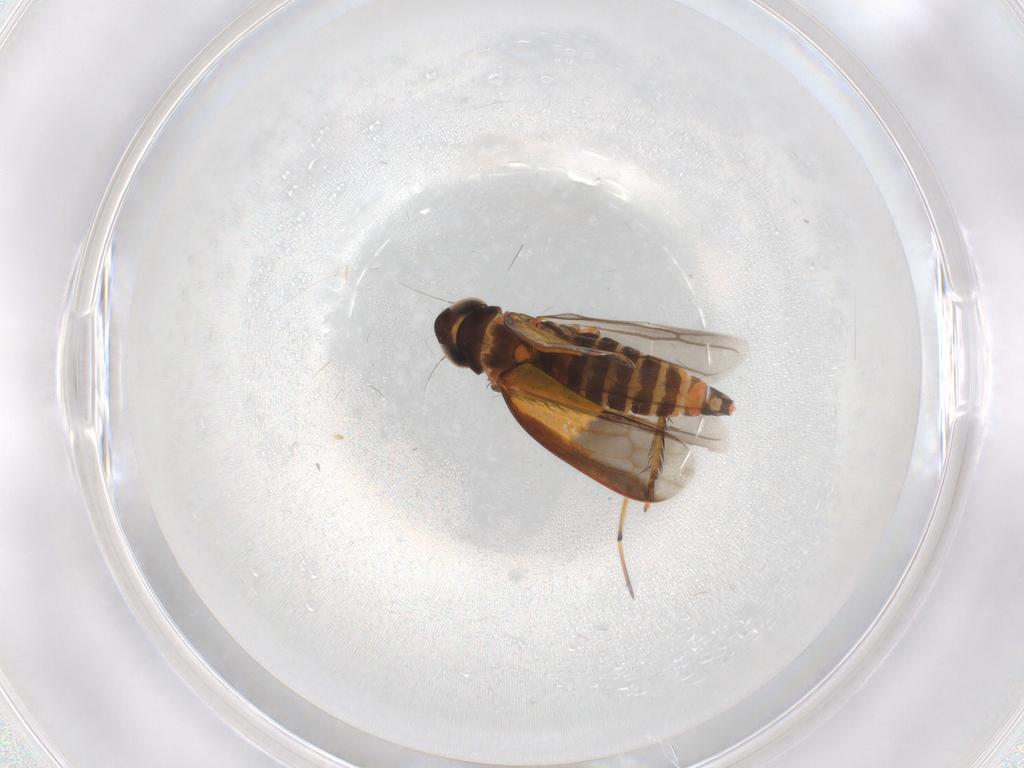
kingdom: Animalia
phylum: Arthropoda
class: Insecta
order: Hemiptera
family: Cicadellidae
